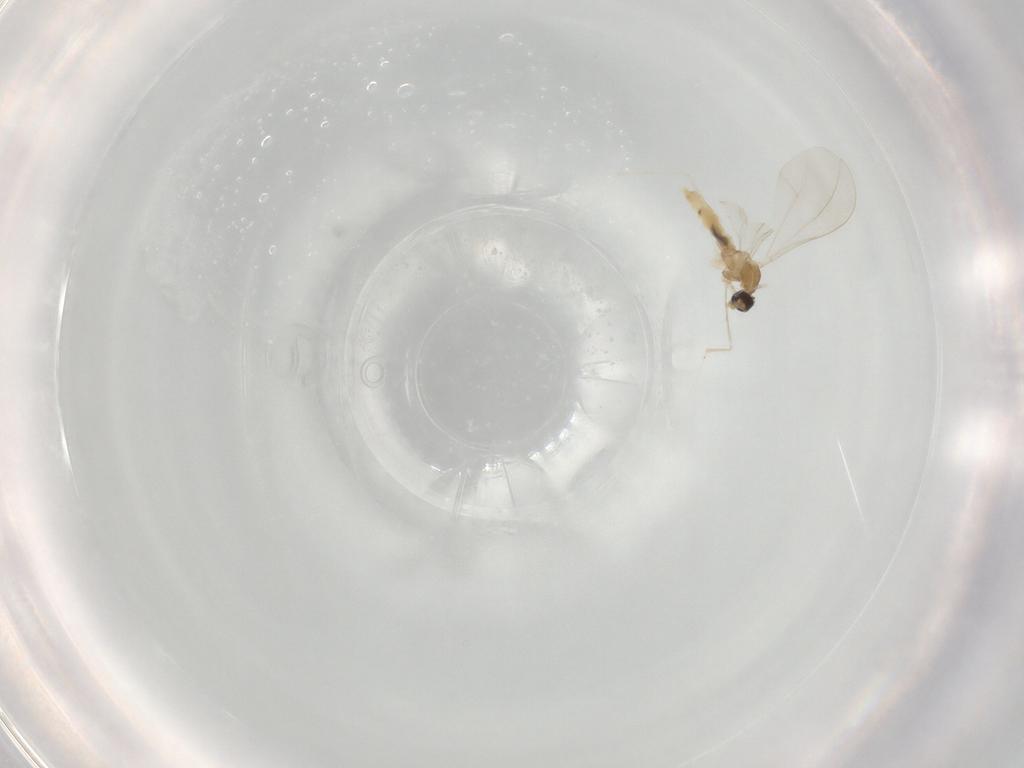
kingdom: Animalia
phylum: Arthropoda
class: Insecta
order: Diptera
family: Cecidomyiidae
